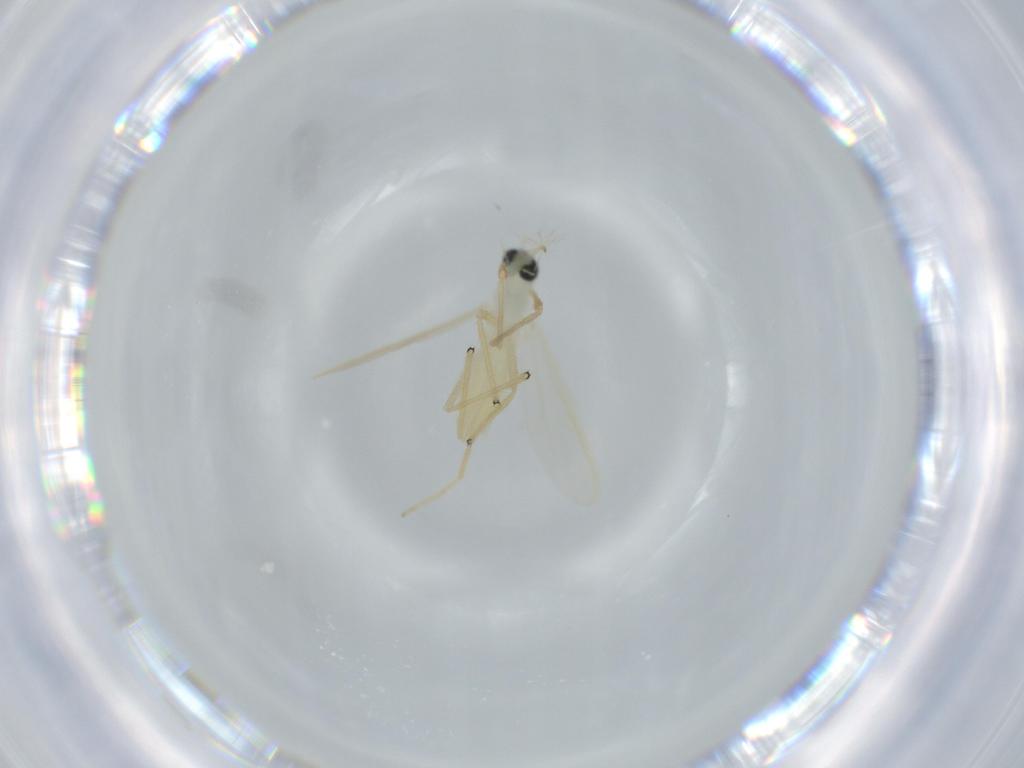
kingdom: Animalia
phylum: Arthropoda
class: Insecta
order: Diptera
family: Chironomidae
